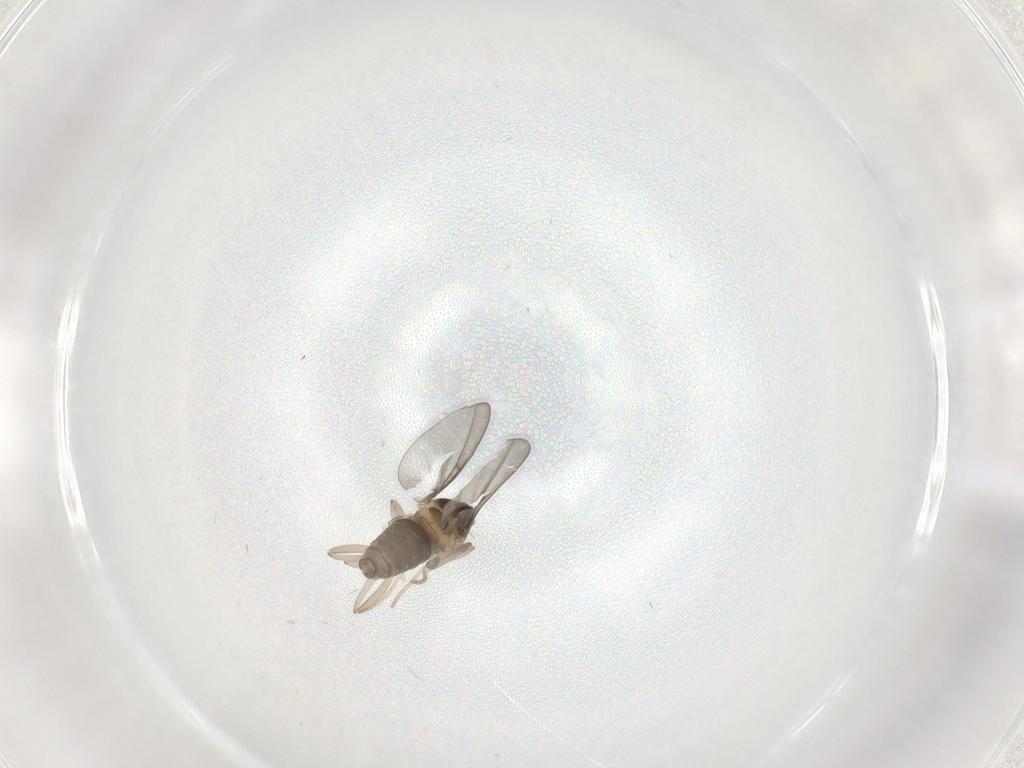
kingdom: Animalia
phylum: Arthropoda
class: Insecta
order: Diptera
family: Cecidomyiidae
